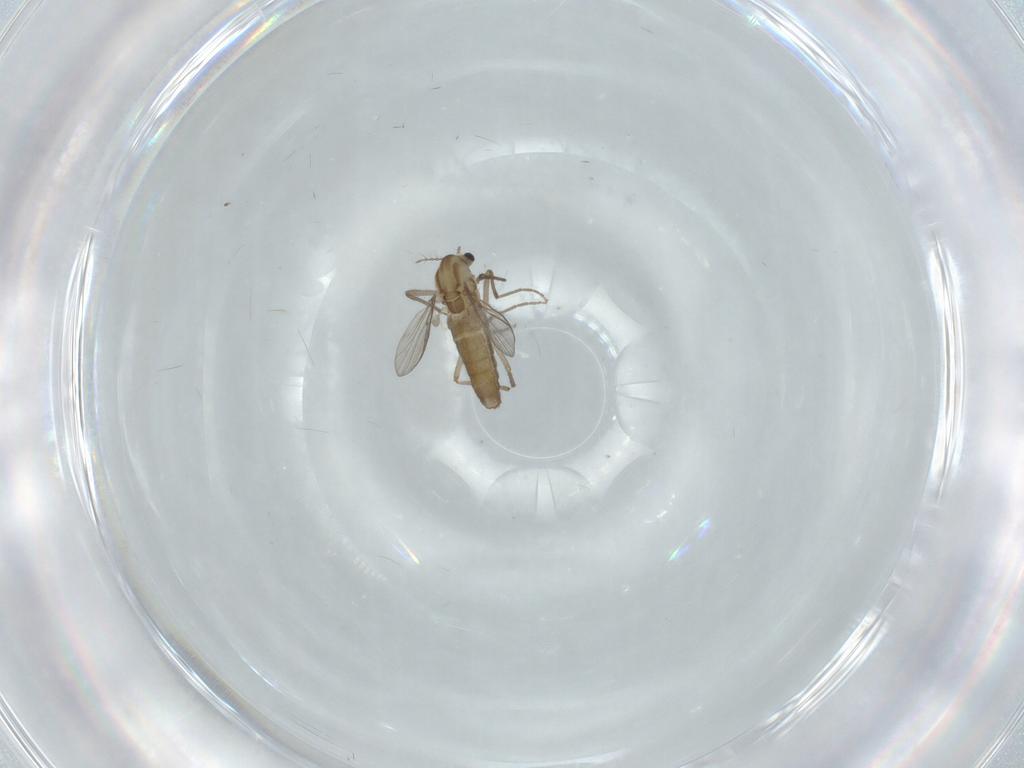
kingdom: Animalia
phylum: Arthropoda
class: Insecta
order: Diptera
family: Chironomidae
